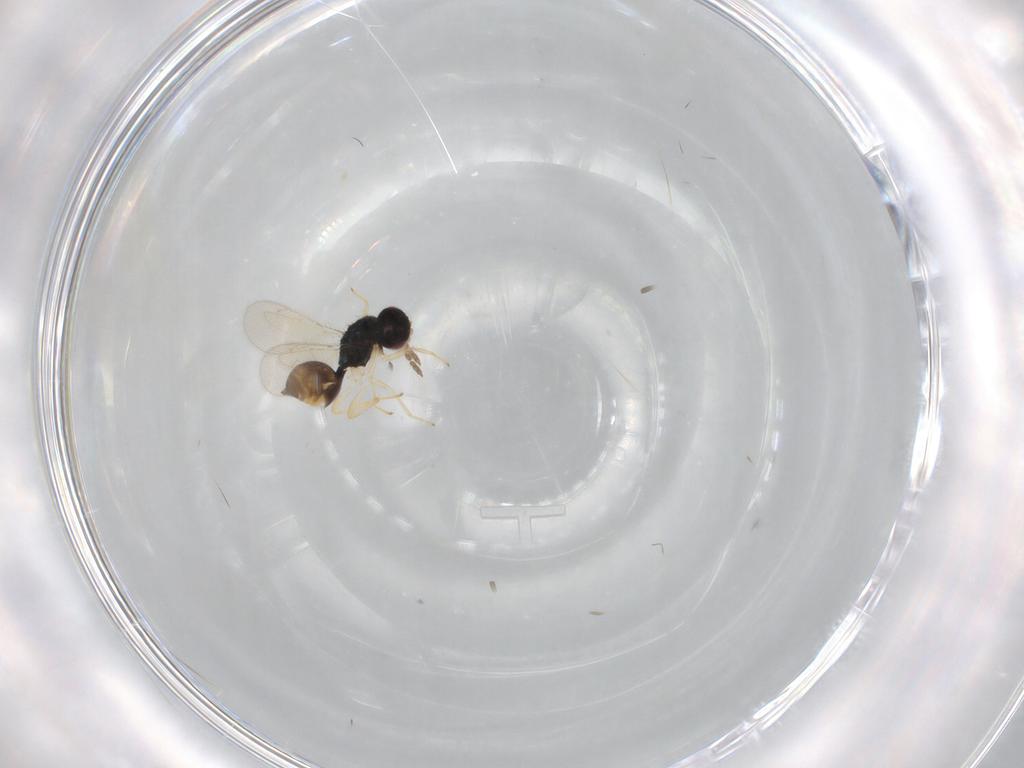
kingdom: Animalia
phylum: Arthropoda
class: Insecta
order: Hymenoptera
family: Eulophidae
